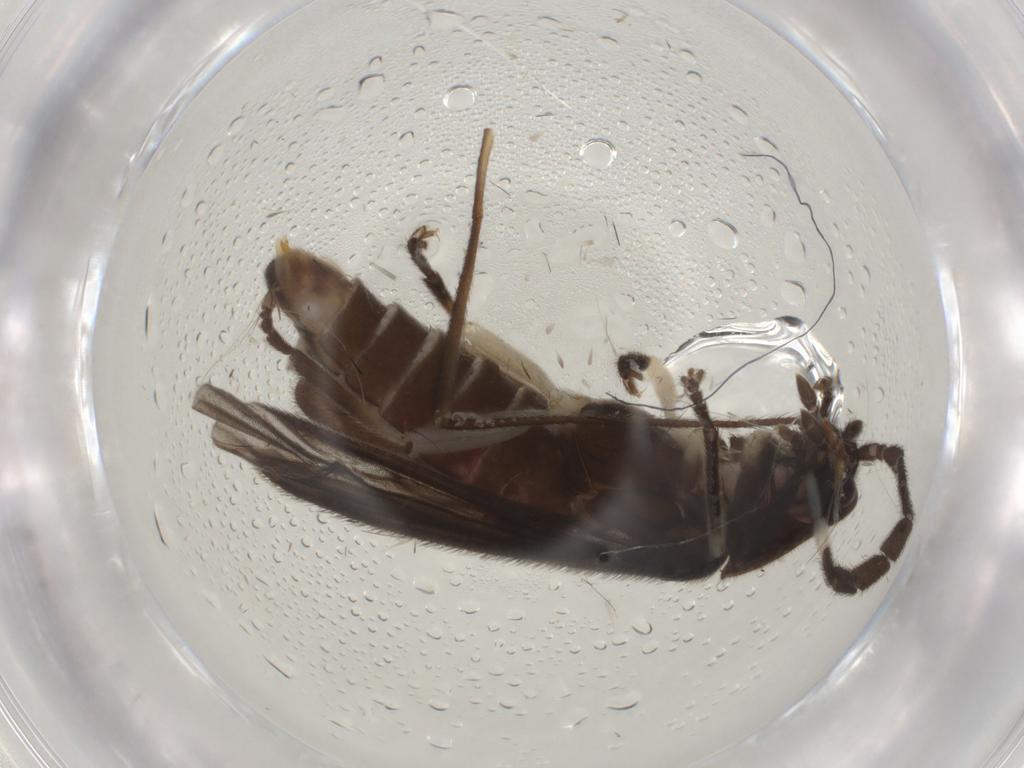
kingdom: Animalia
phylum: Arthropoda
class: Insecta
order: Coleoptera
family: Lampyridae
